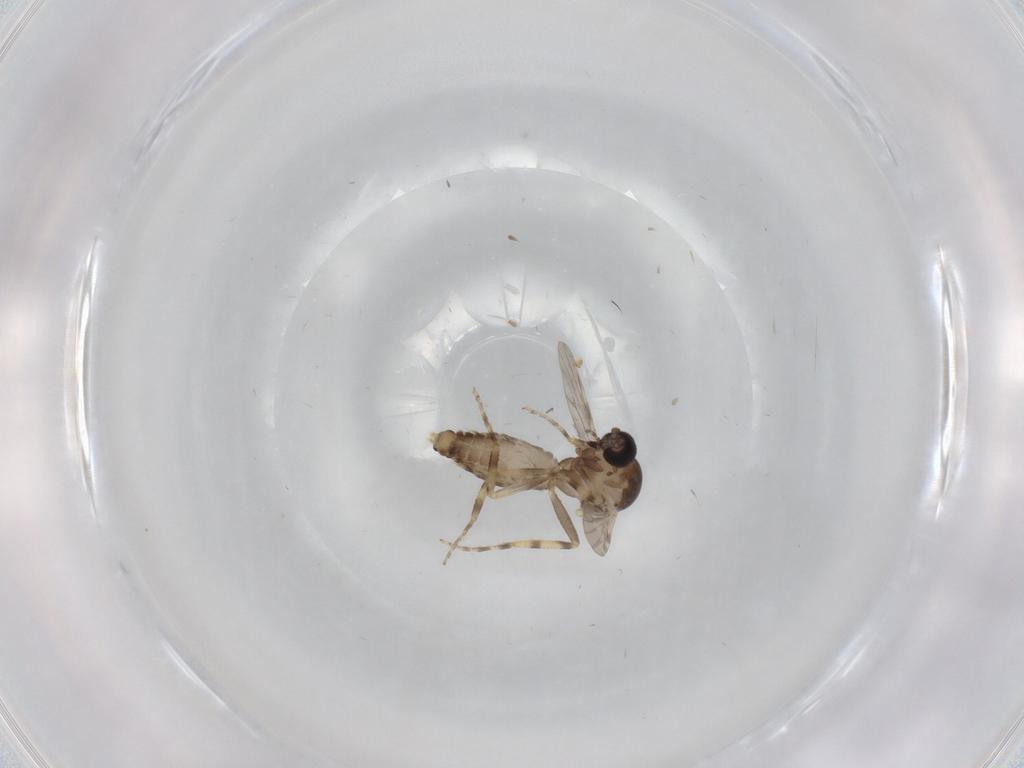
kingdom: Animalia
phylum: Arthropoda
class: Insecta
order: Diptera
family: Ceratopogonidae
